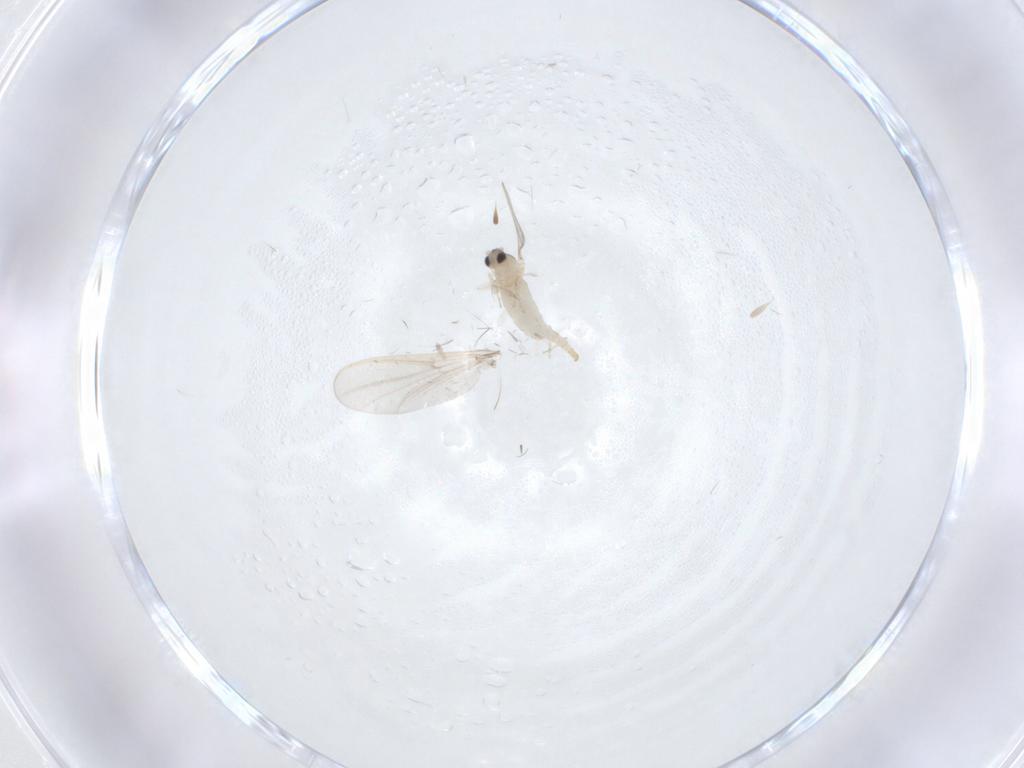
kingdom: Animalia
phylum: Arthropoda
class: Insecta
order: Diptera
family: Cecidomyiidae
